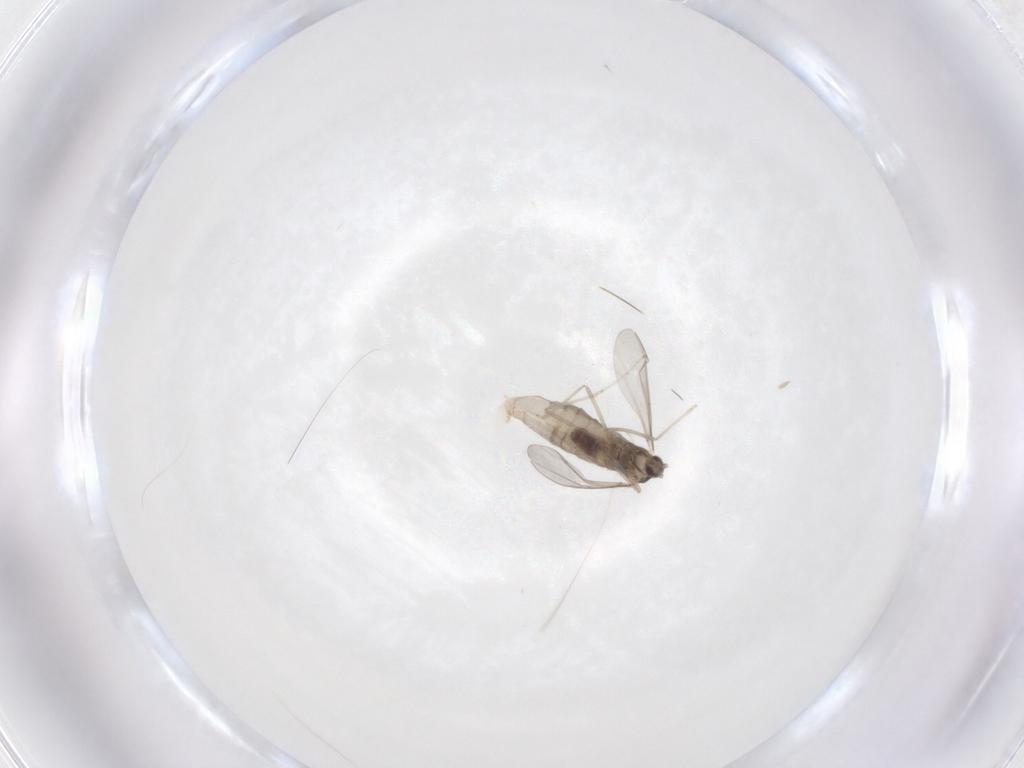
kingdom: Animalia
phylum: Arthropoda
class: Insecta
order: Diptera
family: Cecidomyiidae
